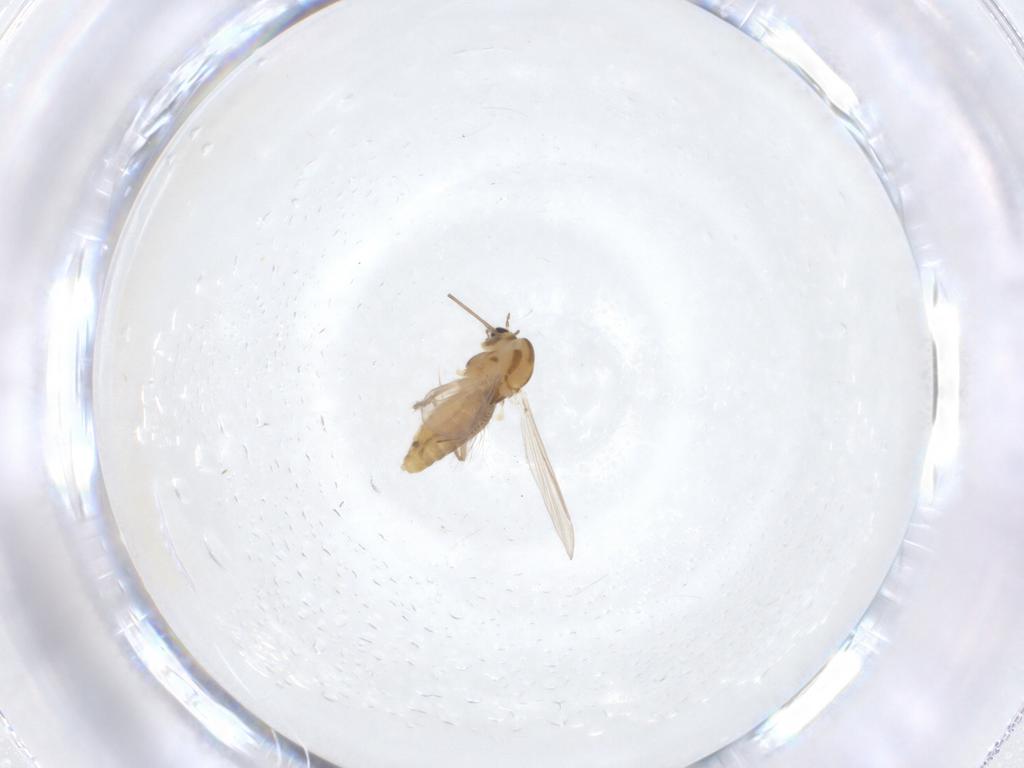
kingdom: Animalia
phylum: Arthropoda
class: Insecta
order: Diptera
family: Chironomidae
